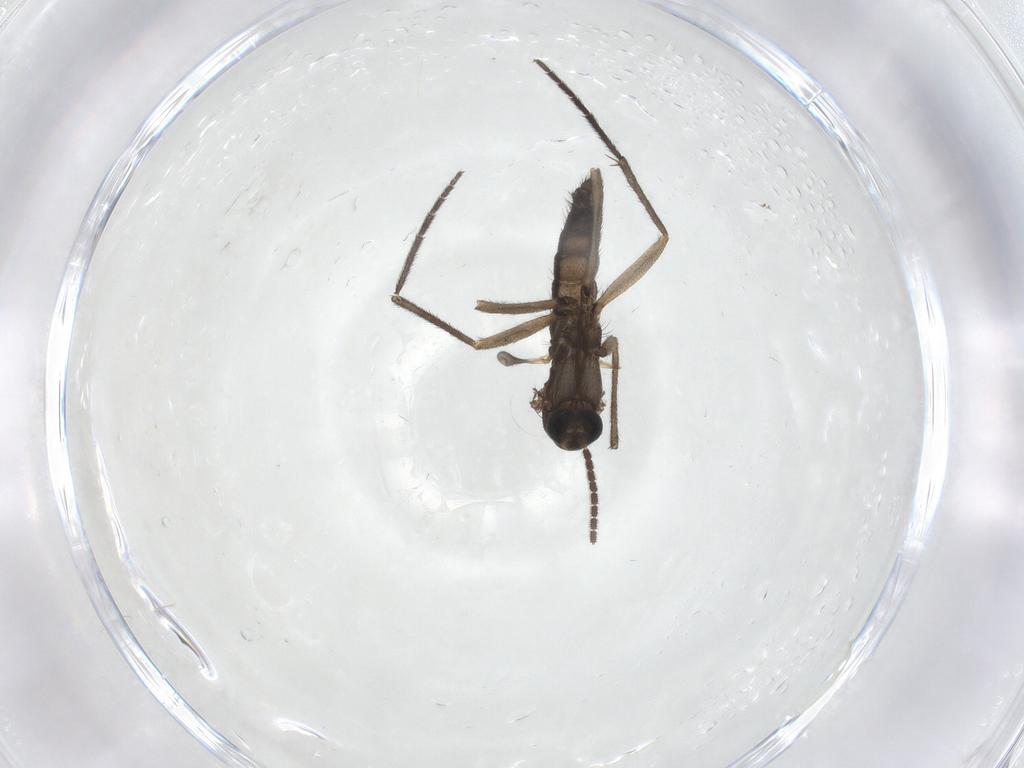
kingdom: Animalia
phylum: Arthropoda
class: Insecta
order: Diptera
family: Sciaridae
